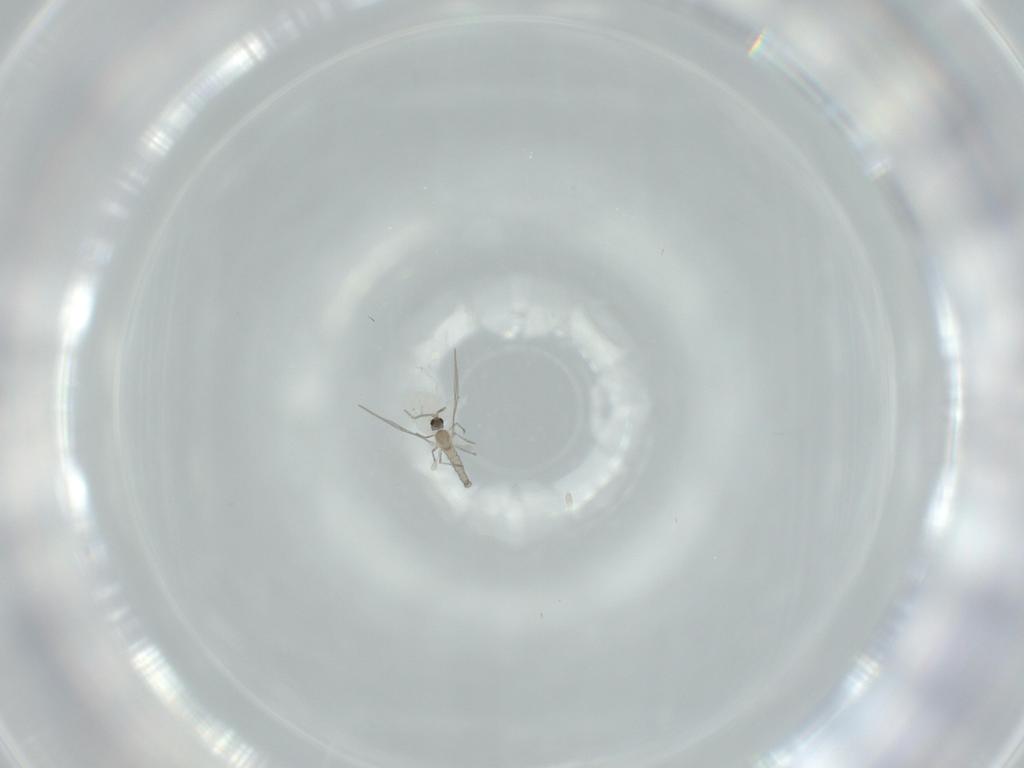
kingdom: Animalia
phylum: Arthropoda
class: Insecta
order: Diptera
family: Cecidomyiidae
